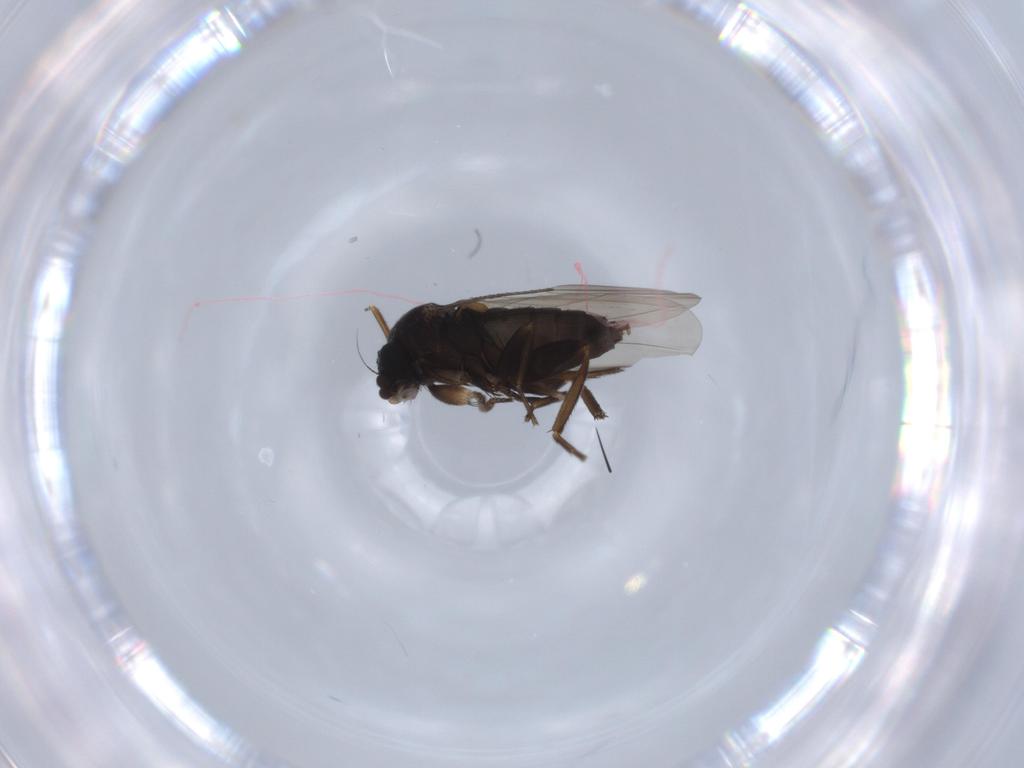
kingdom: Animalia
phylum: Arthropoda
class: Insecta
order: Diptera
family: Phoridae
